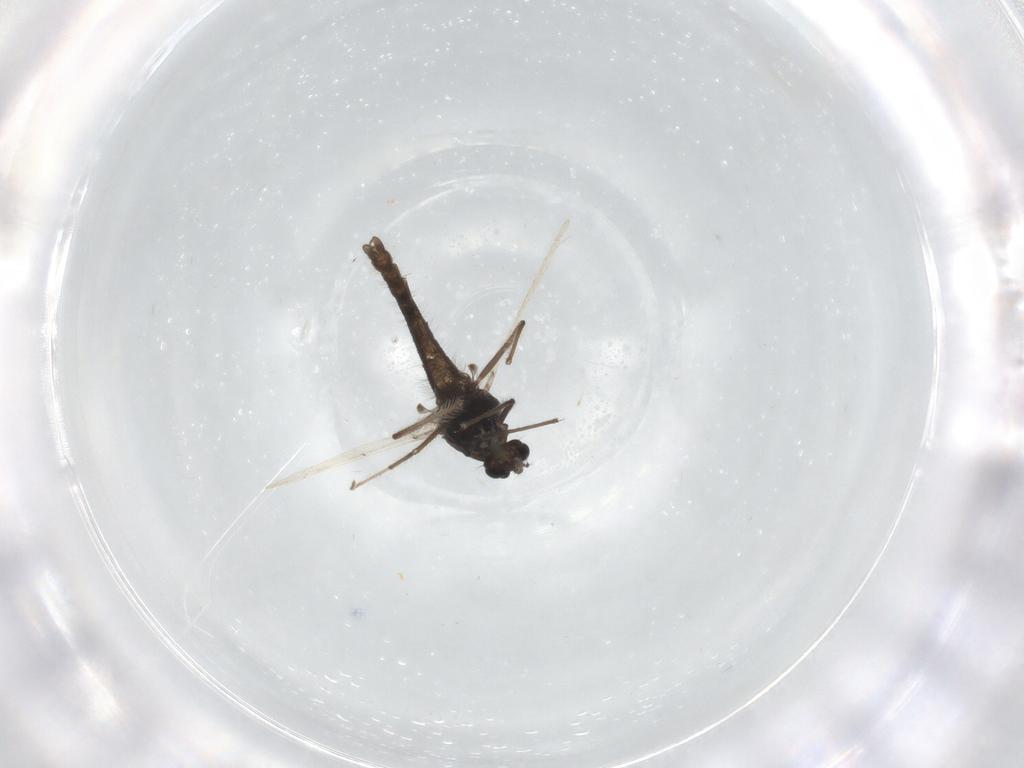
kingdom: Animalia
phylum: Arthropoda
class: Insecta
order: Diptera
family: Chironomidae
